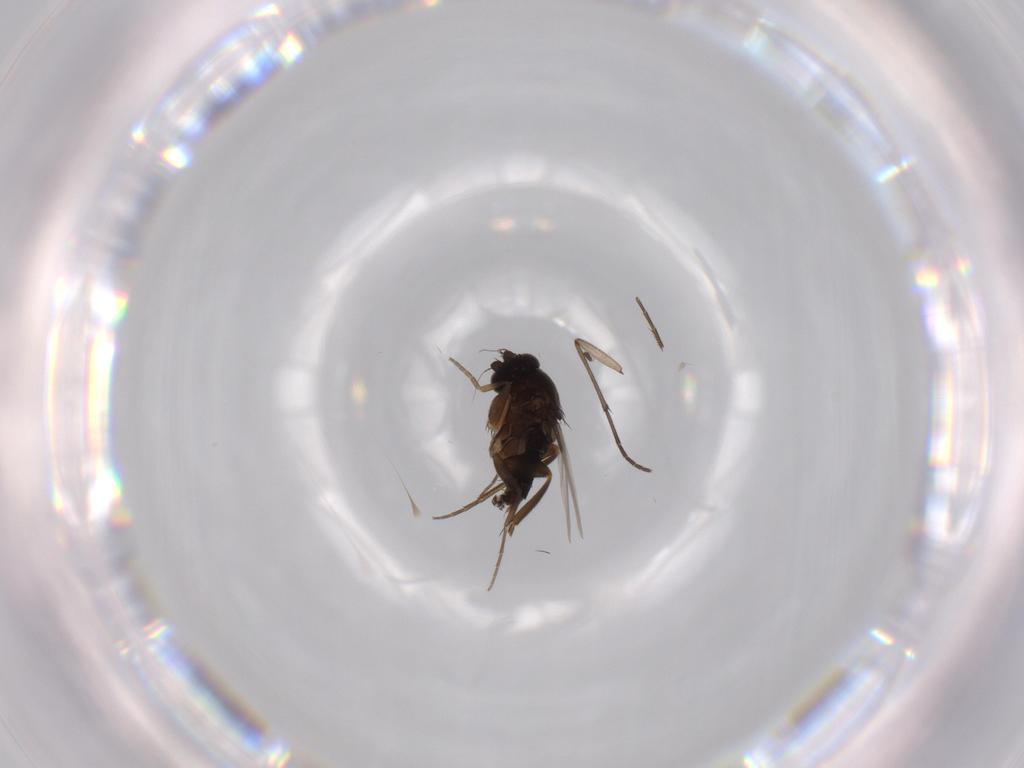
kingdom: Animalia
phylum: Arthropoda
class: Insecta
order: Diptera
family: Phoridae
